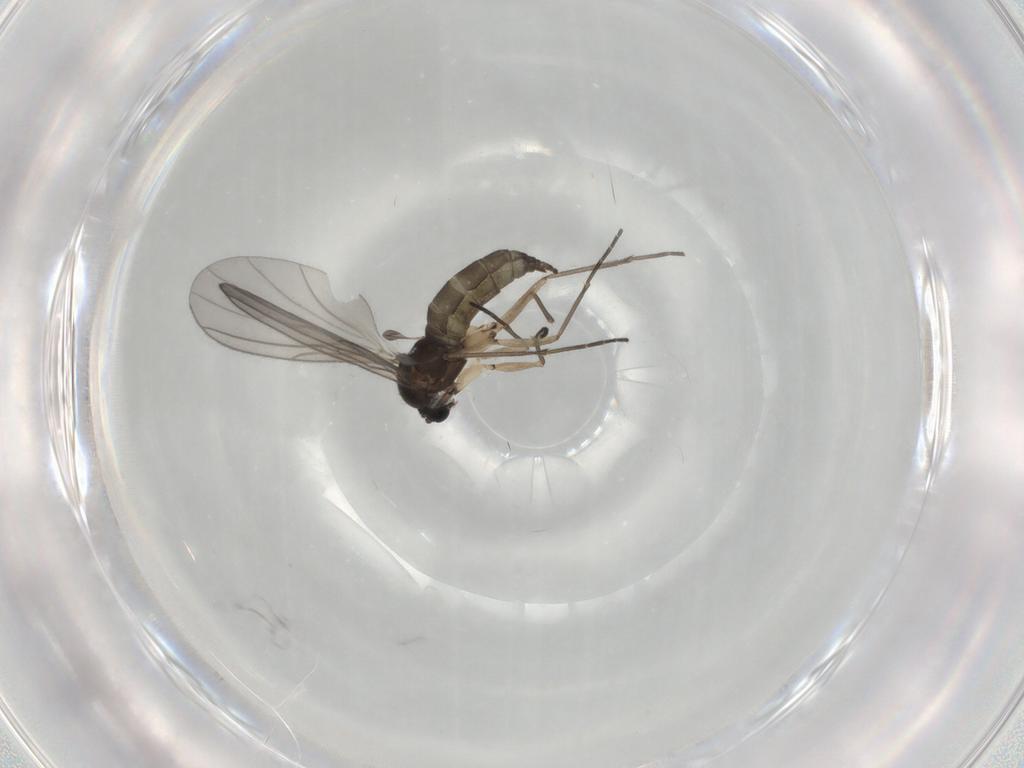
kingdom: Animalia
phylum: Arthropoda
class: Insecta
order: Diptera
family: Sciaridae
